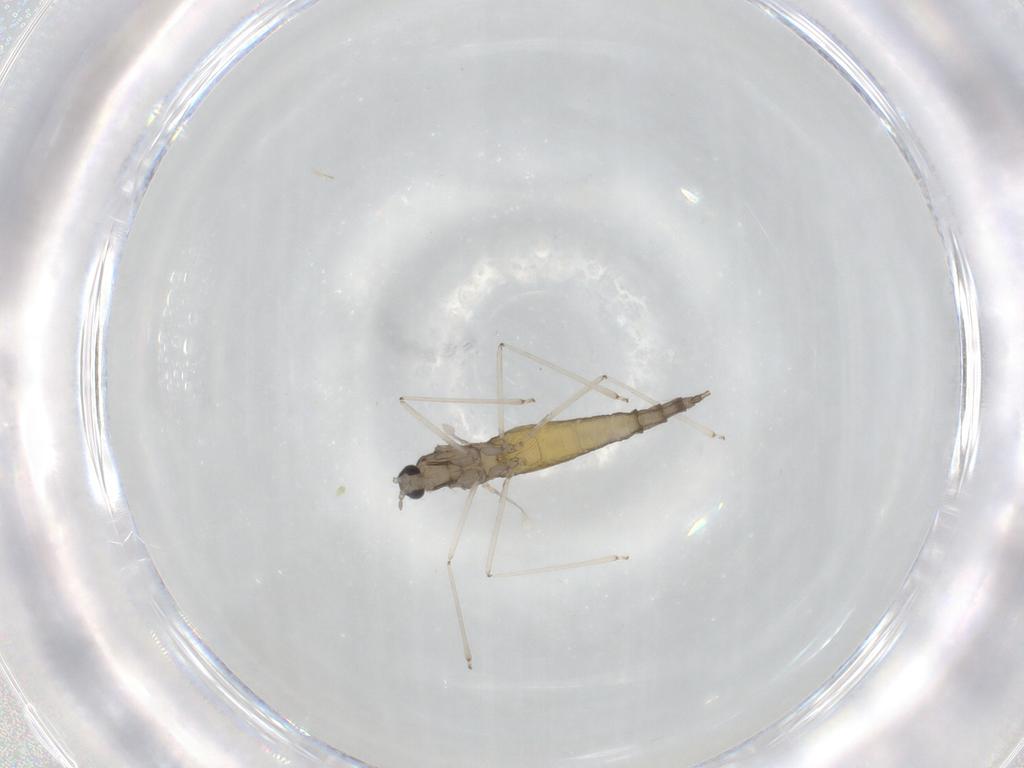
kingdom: Animalia
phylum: Arthropoda
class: Insecta
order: Diptera
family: Cecidomyiidae
